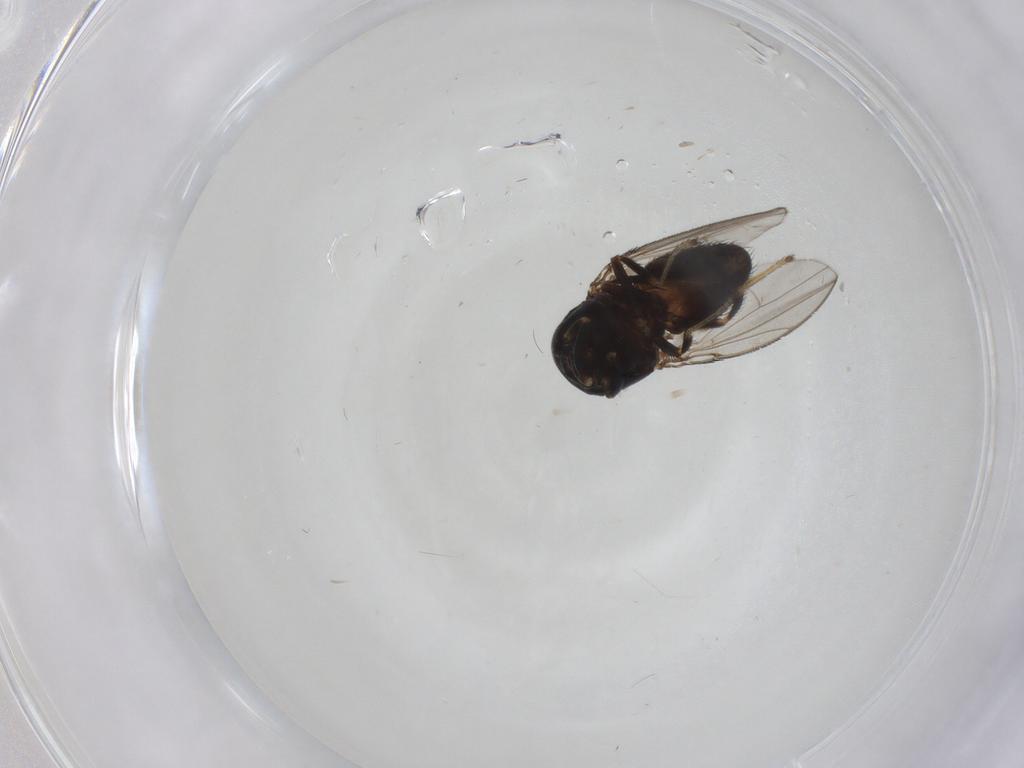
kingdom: Animalia
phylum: Arthropoda
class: Insecta
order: Diptera
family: Ephydridae
